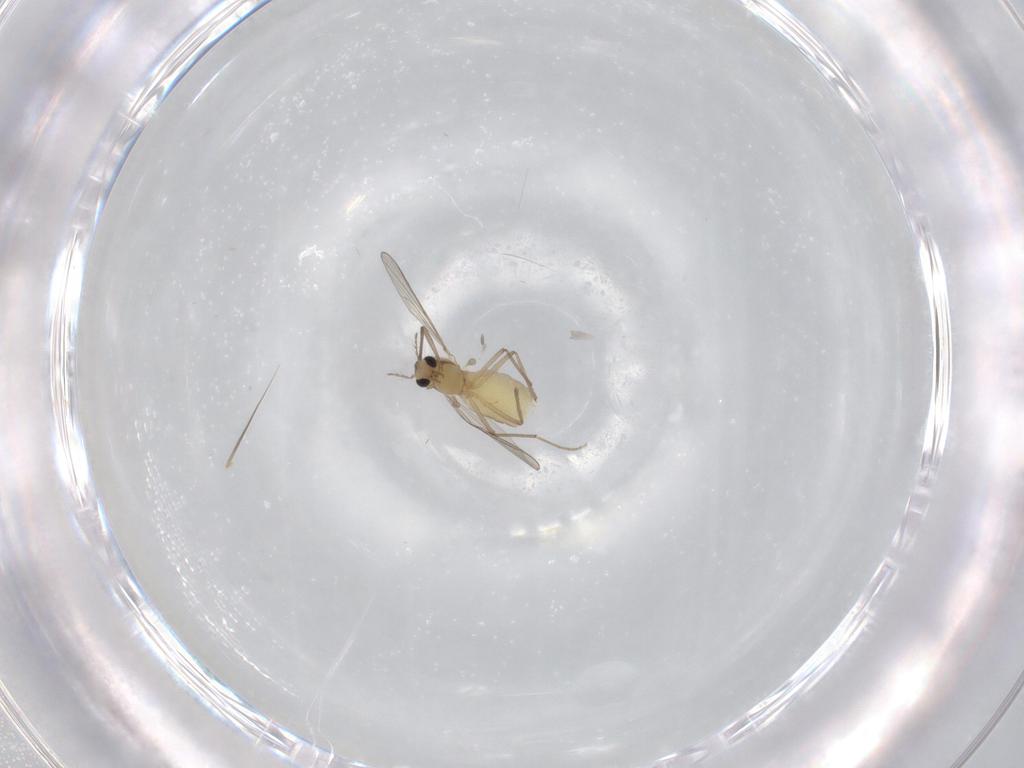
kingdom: Animalia
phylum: Arthropoda
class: Insecta
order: Diptera
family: Chironomidae
